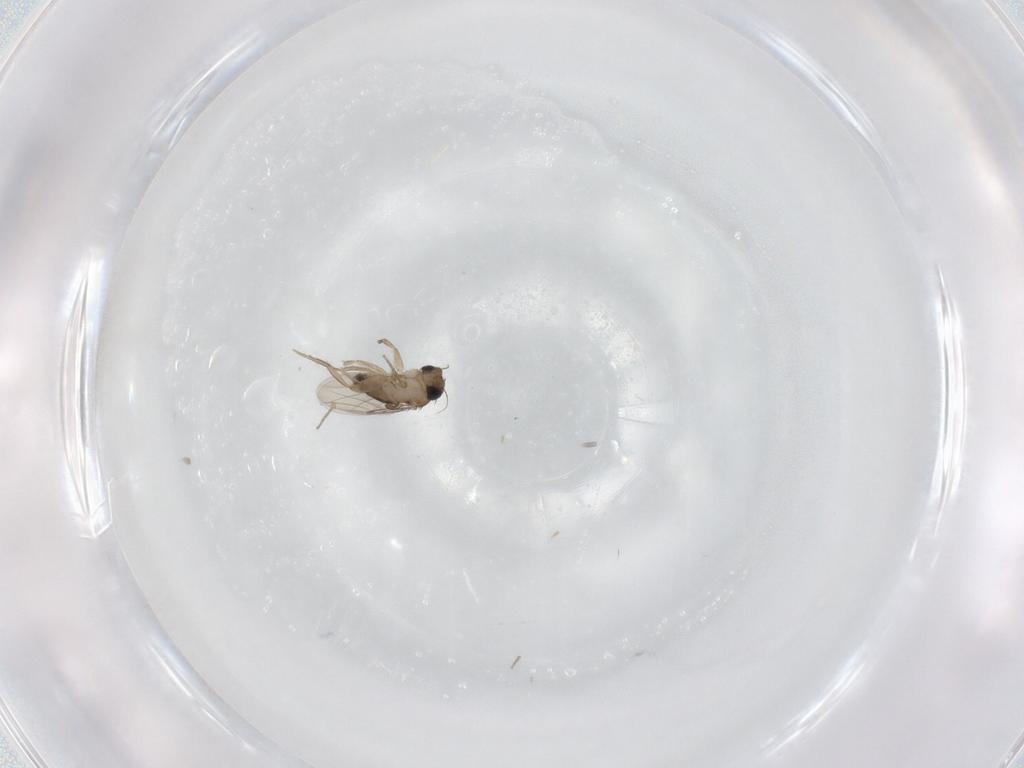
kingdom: Animalia
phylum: Arthropoda
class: Insecta
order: Diptera
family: Phoridae
